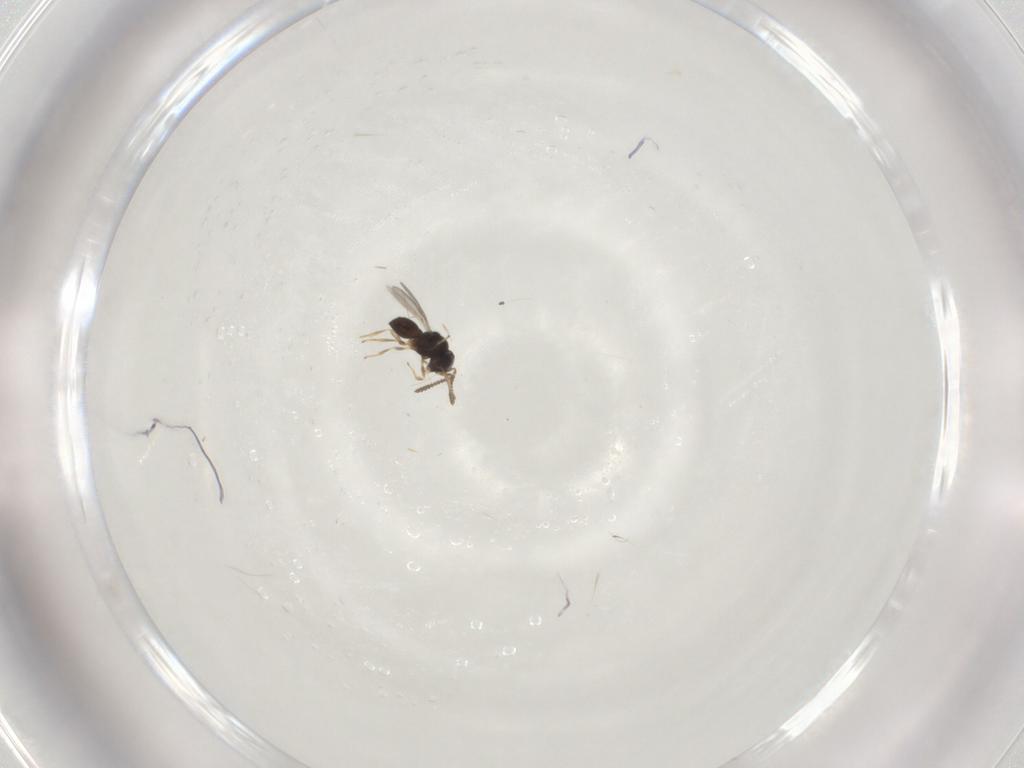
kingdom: Animalia
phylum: Arthropoda
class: Insecta
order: Hymenoptera
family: Scelionidae
